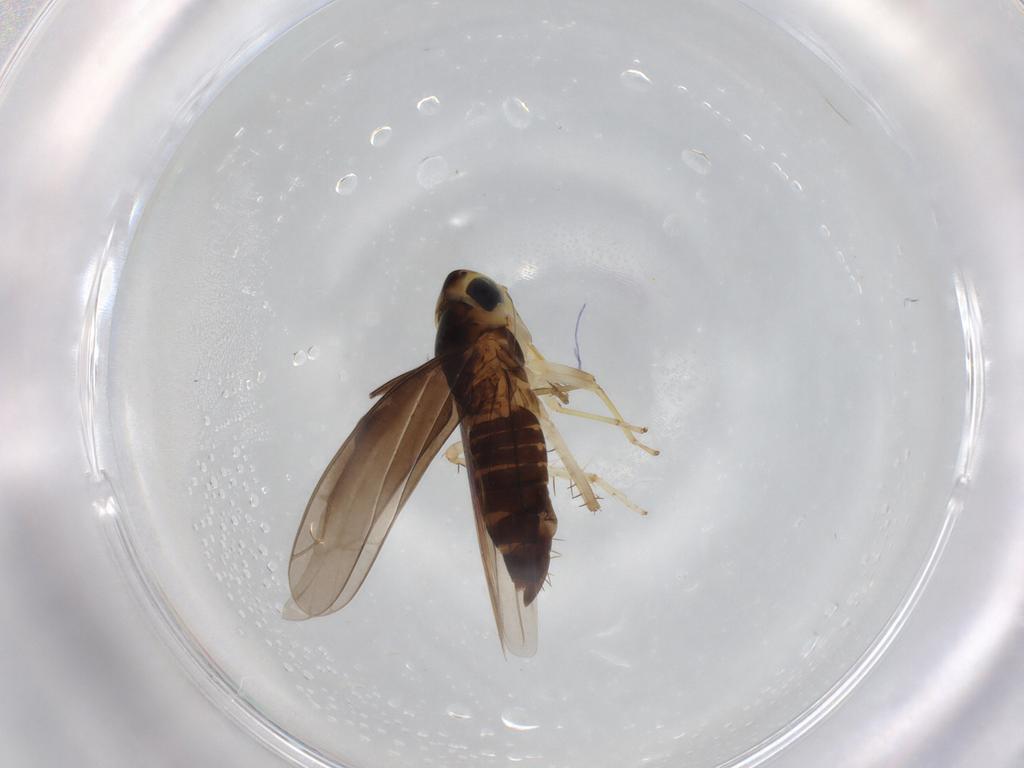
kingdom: Animalia
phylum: Arthropoda
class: Insecta
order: Hemiptera
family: Cicadellidae
